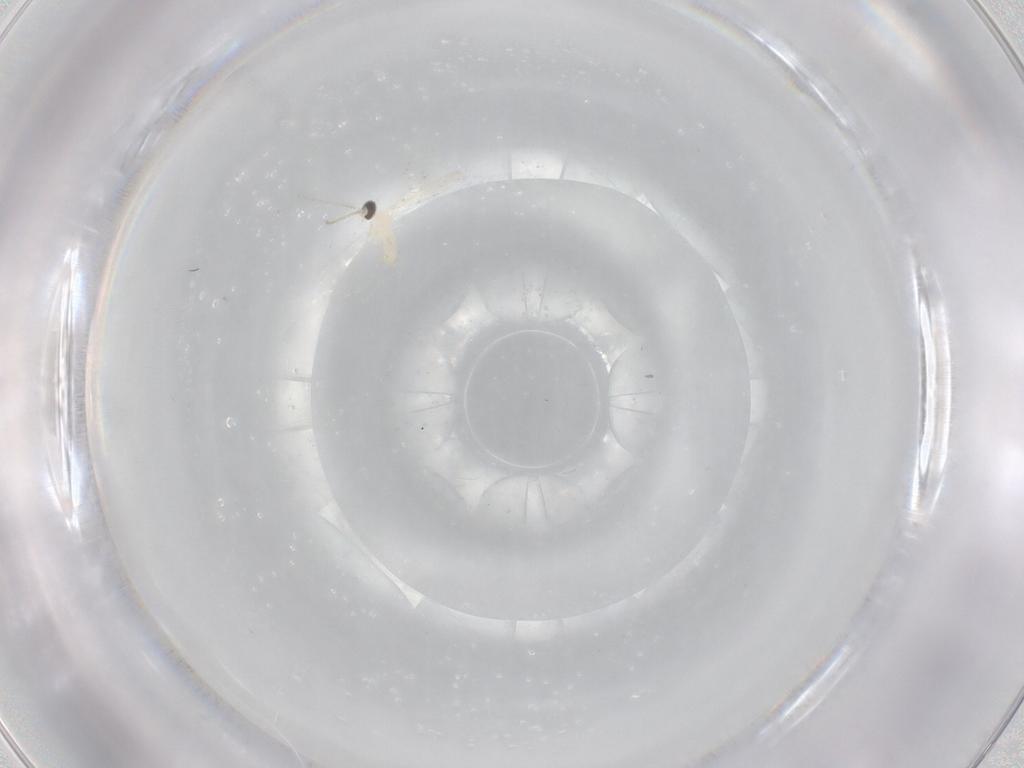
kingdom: Animalia
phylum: Arthropoda
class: Insecta
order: Diptera
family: Cecidomyiidae
